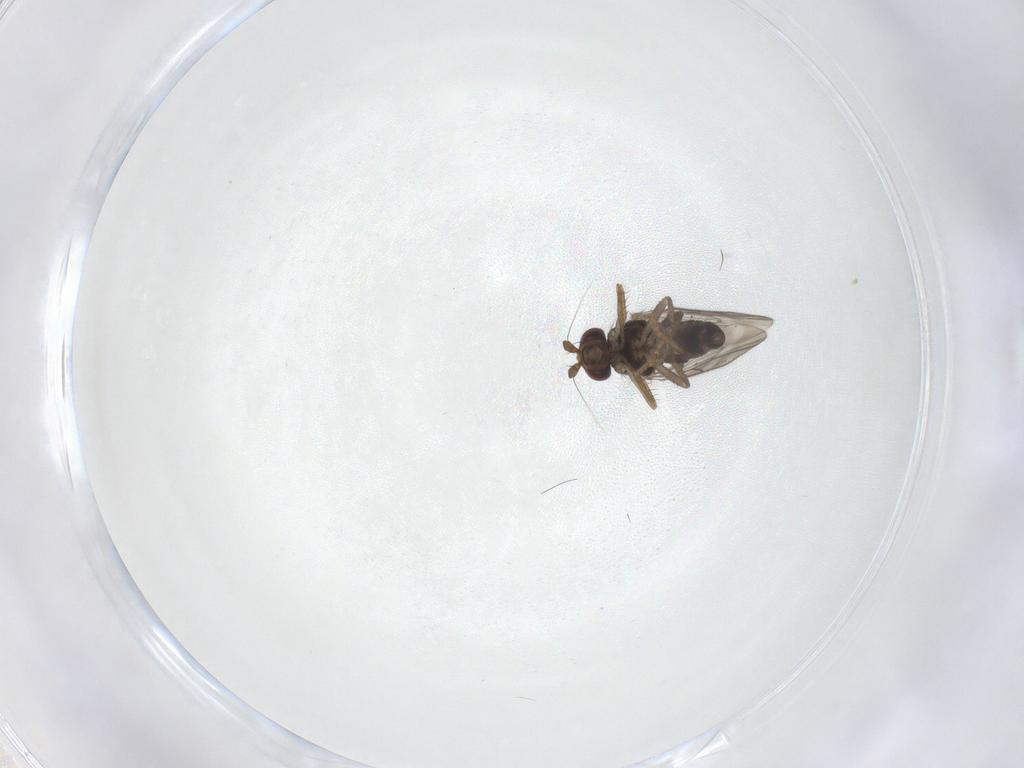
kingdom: Animalia
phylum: Arthropoda
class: Insecta
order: Diptera
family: Sphaeroceridae
